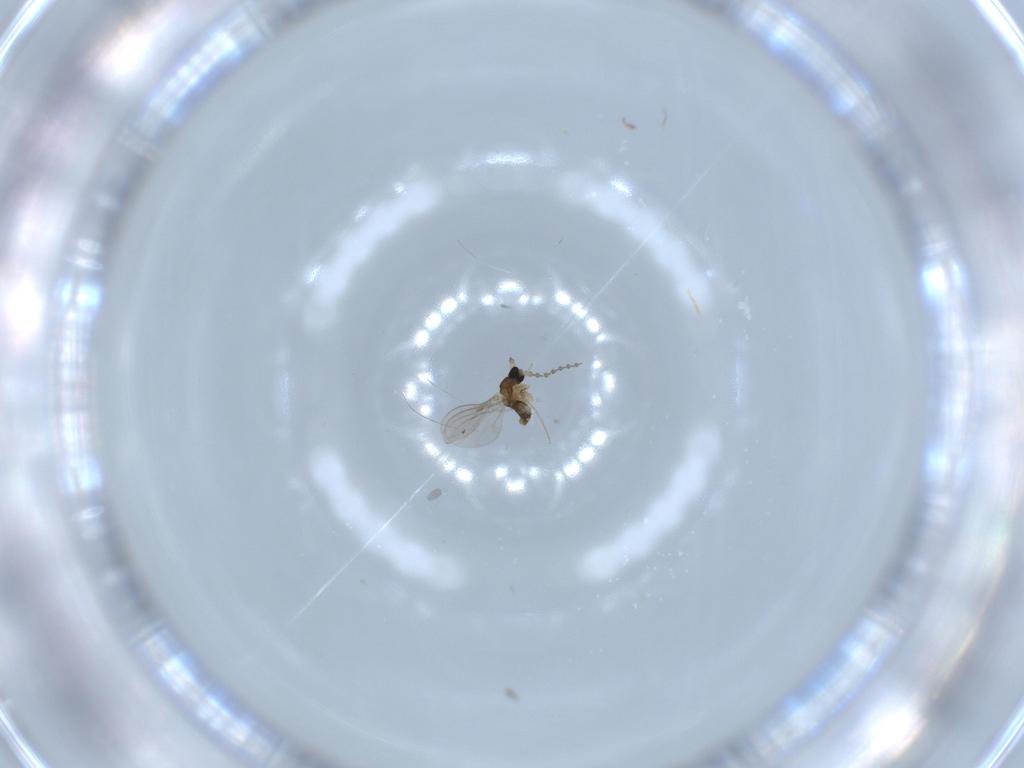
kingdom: Animalia
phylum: Arthropoda
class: Insecta
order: Diptera
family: Cecidomyiidae
